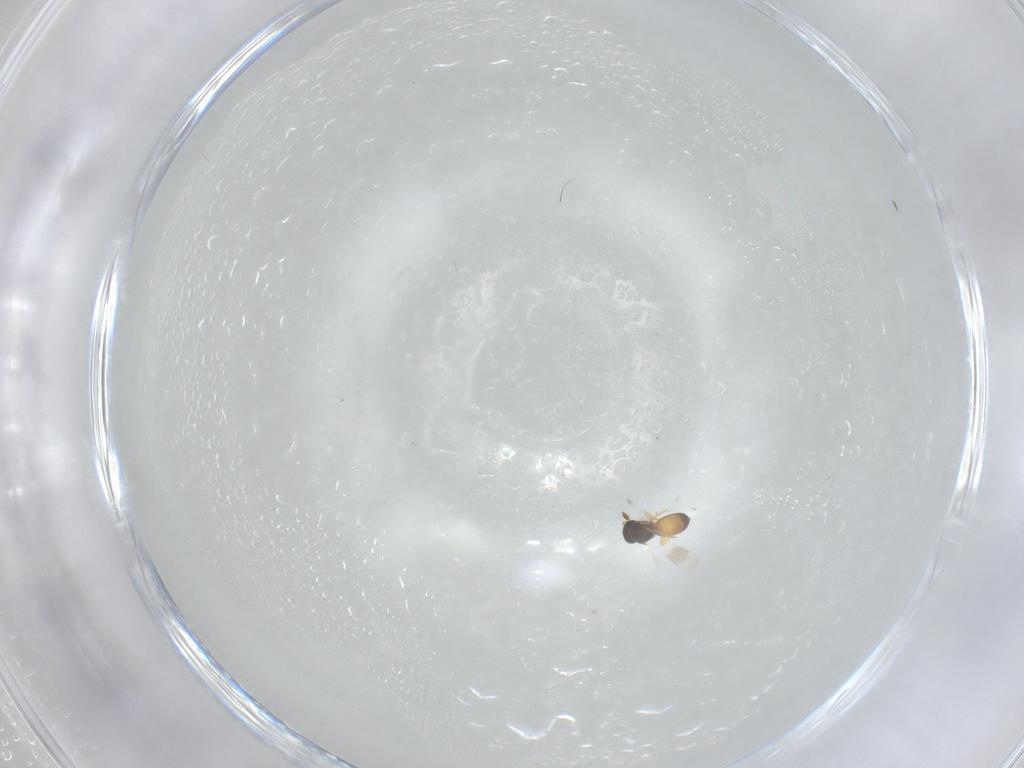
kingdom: Animalia
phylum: Arthropoda
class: Insecta
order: Hymenoptera
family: Platygastridae
